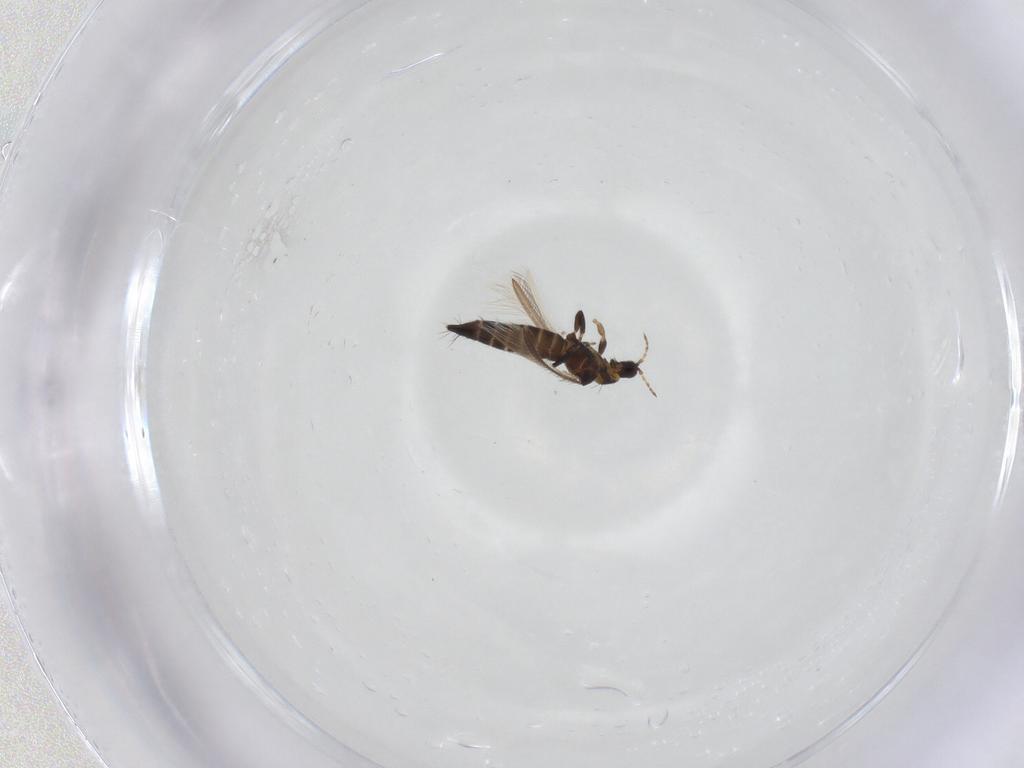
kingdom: Animalia
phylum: Arthropoda
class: Insecta
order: Thysanoptera
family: Thripidae
